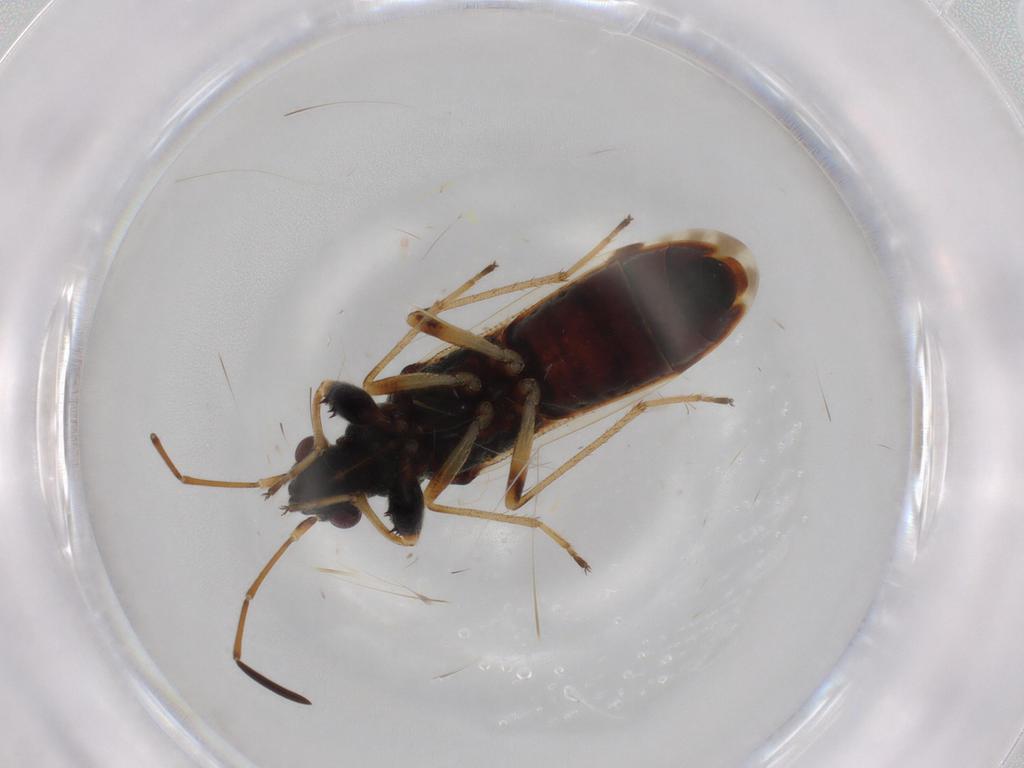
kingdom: Animalia
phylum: Arthropoda
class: Insecta
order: Hemiptera
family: Rhyparochromidae
